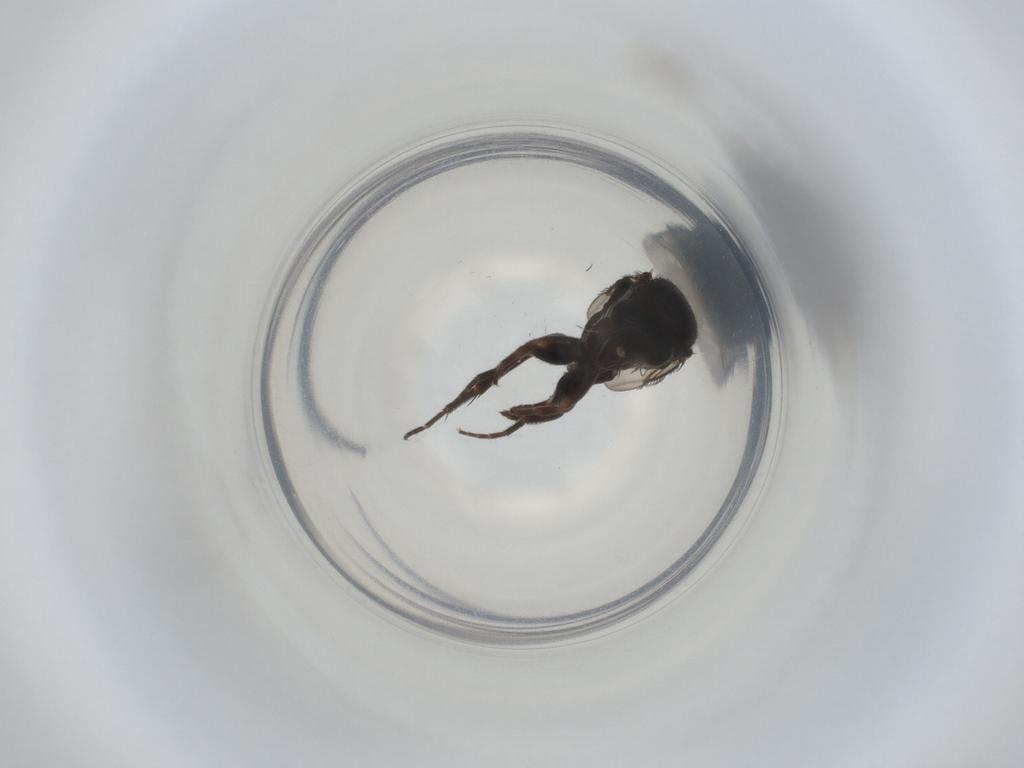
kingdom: Animalia
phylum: Arthropoda
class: Insecta
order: Diptera
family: Phoridae
